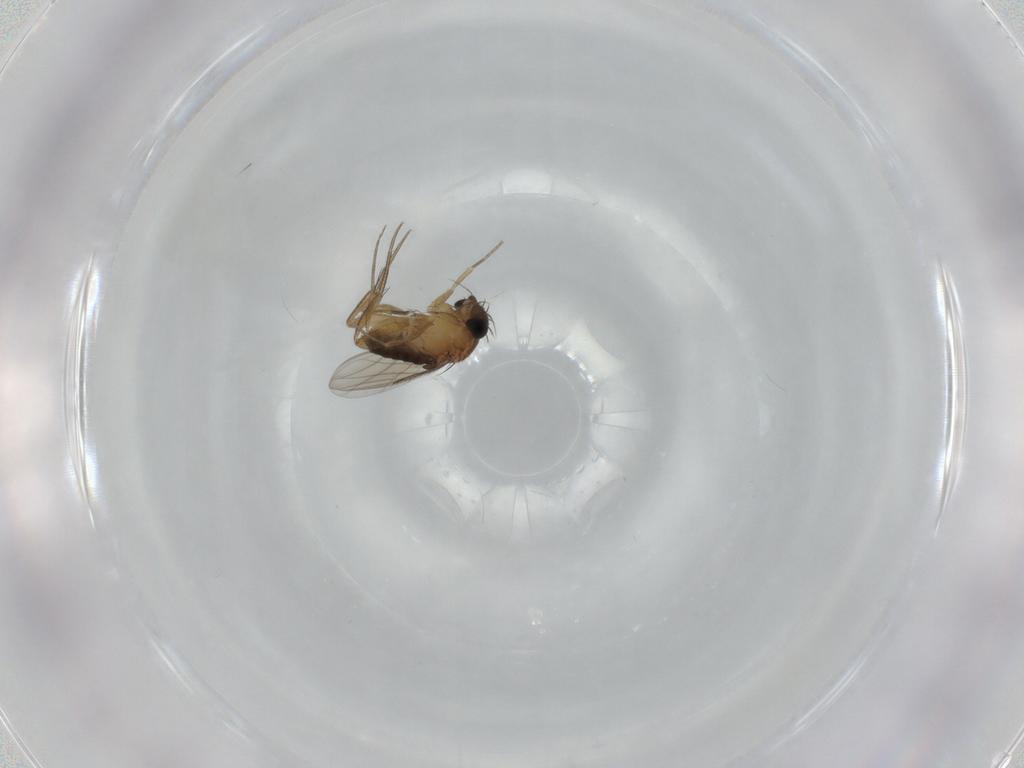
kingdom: Animalia
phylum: Arthropoda
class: Insecta
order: Diptera
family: Phoridae
